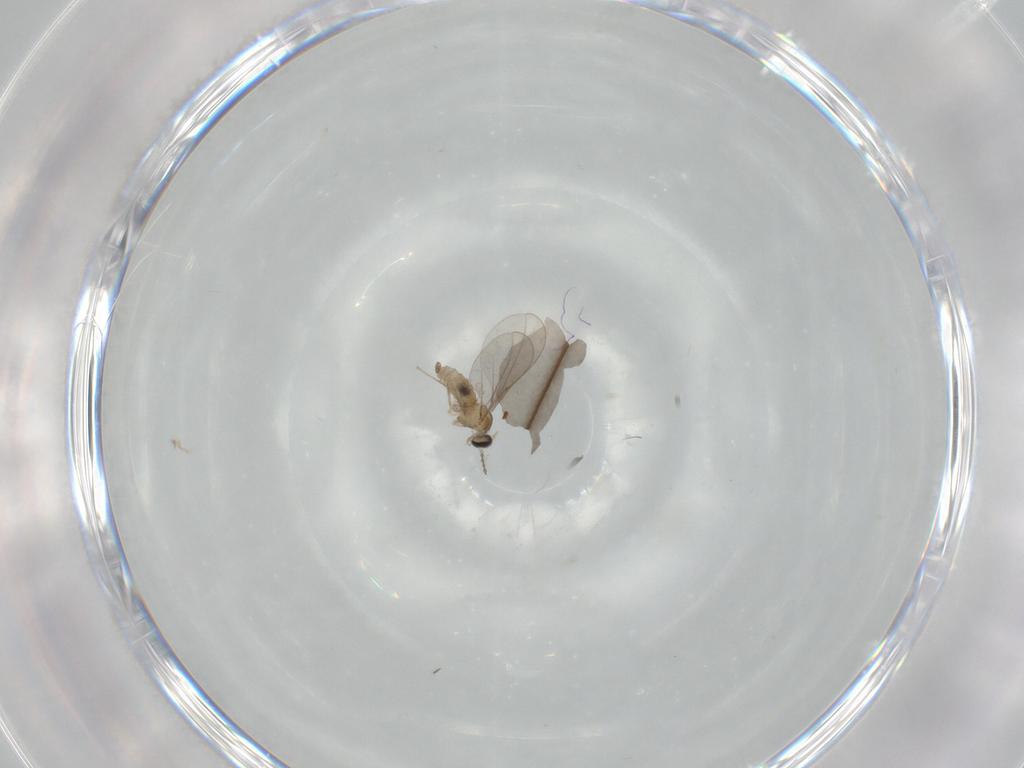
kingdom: Animalia
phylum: Arthropoda
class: Insecta
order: Diptera
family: Cecidomyiidae
